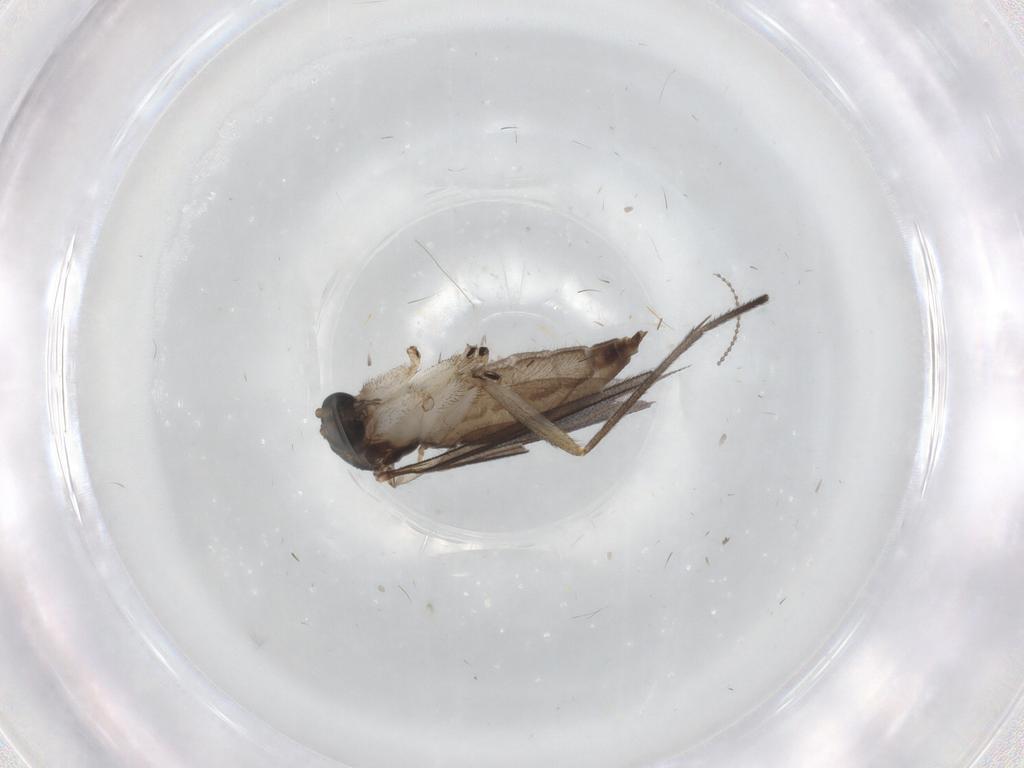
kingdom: Animalia
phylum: Arthropoda
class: Insecta
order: Diptera
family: Sciaridae
